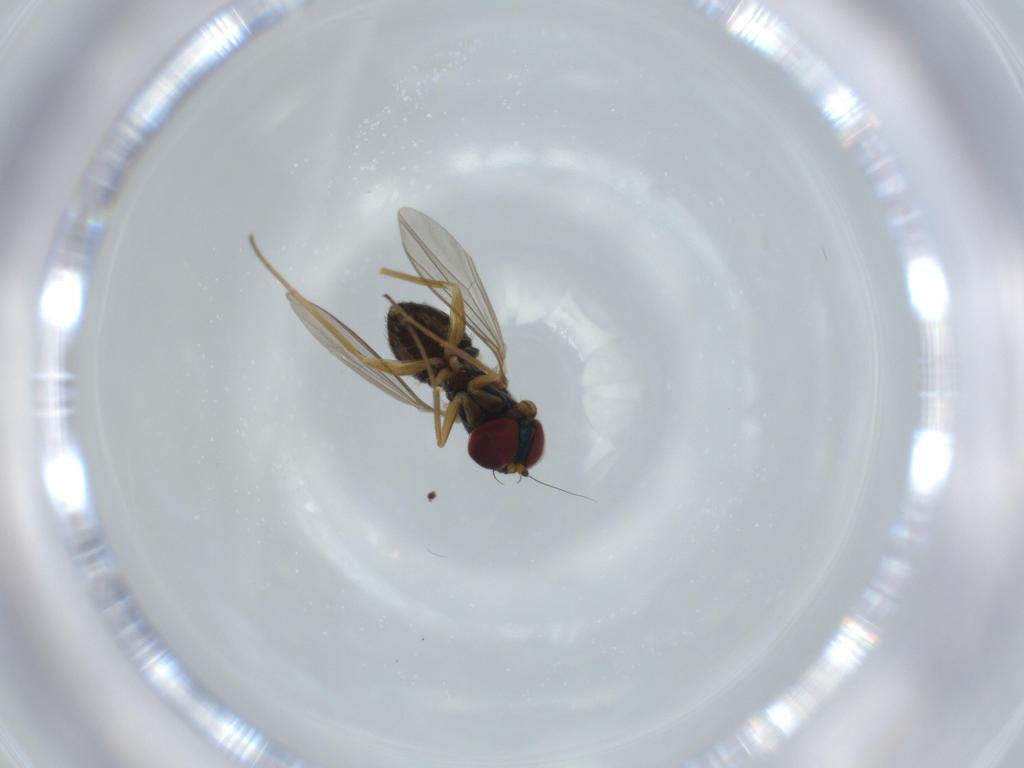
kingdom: Animalia
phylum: Arthropoda
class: Insecta
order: Diptera
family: Dolichopodidae
